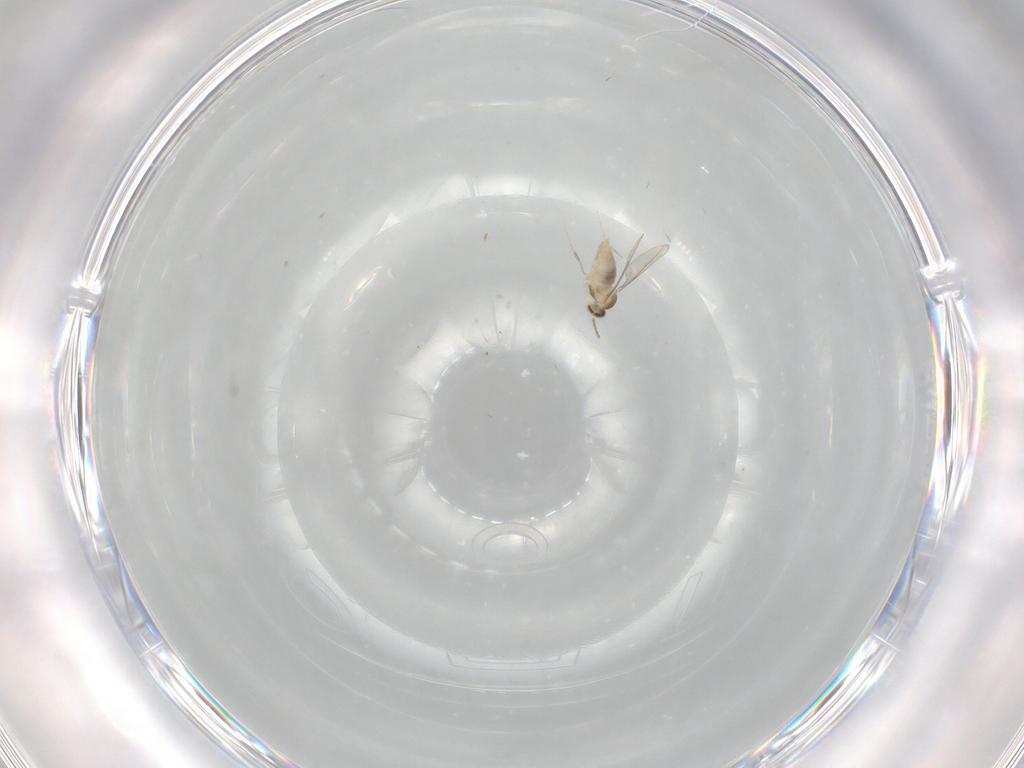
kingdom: Animalia
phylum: Arthropoda
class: Insecta
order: Diptera
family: Cecidomyiidae
